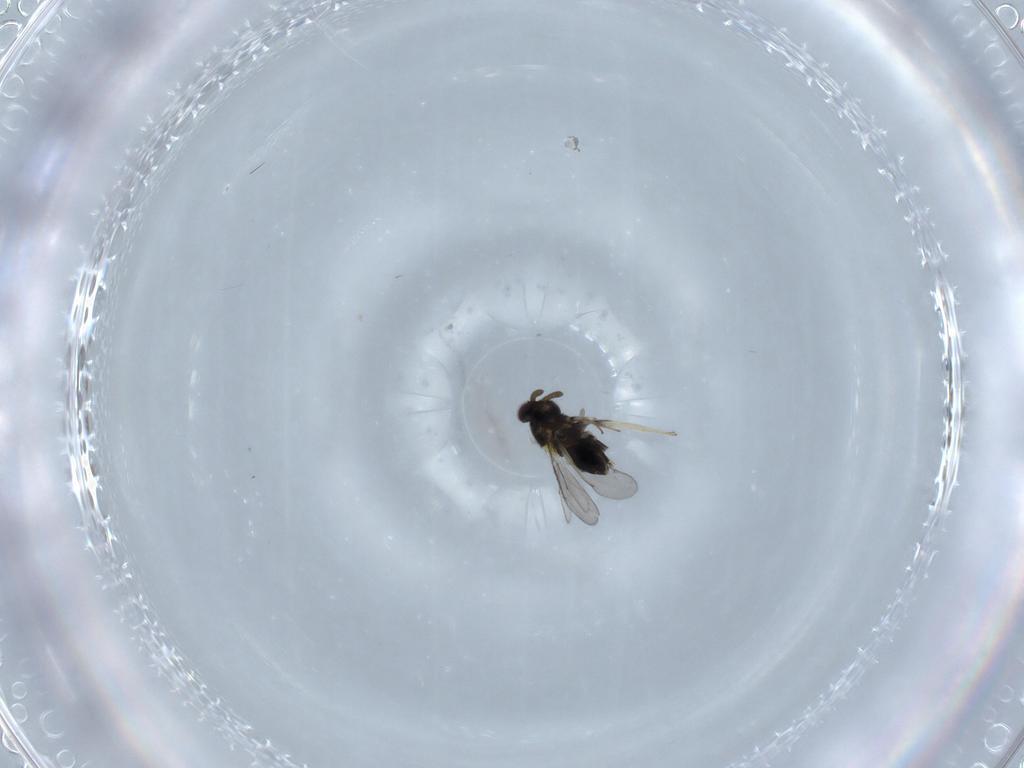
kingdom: Animalia
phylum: Arthropoda
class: Insecta
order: Hymenoptera
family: Aphelinidae
